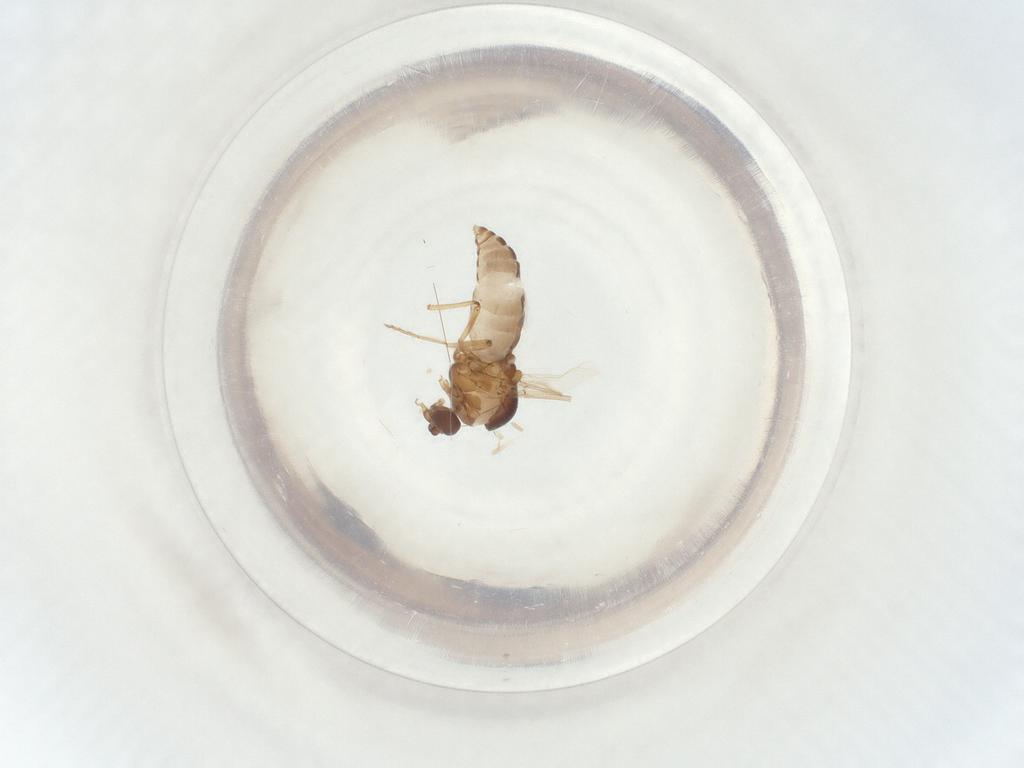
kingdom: Animalia
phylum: Arthropoda
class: Insecta
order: Diptera
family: Ceratopogonidae
